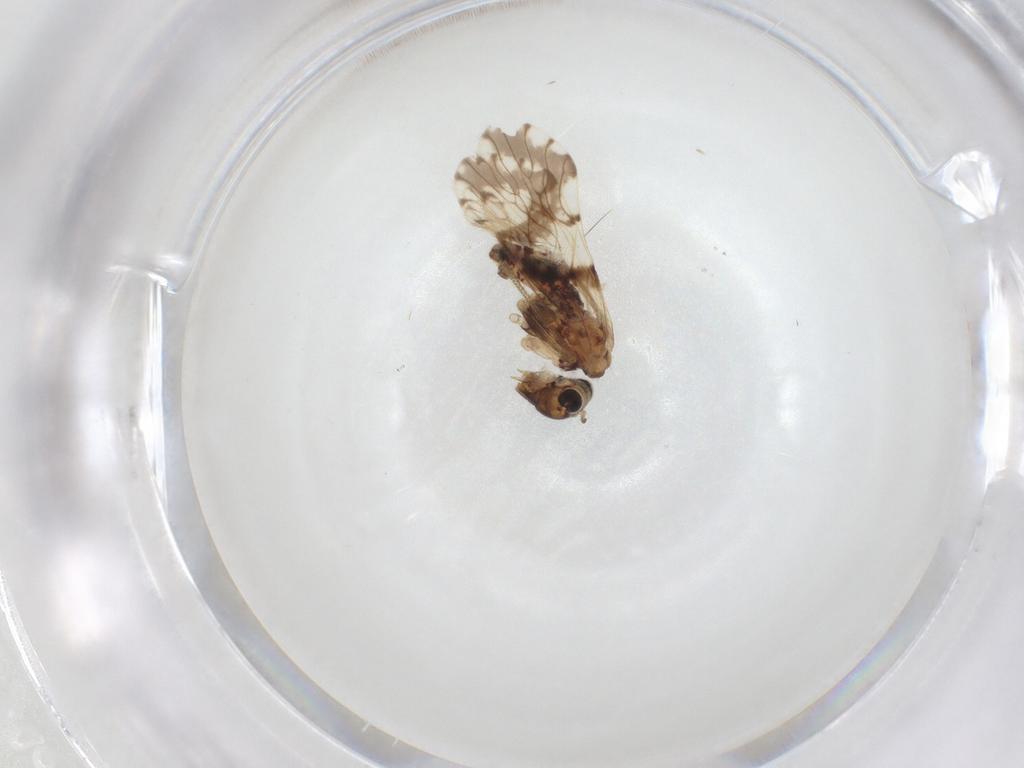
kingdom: Animalia
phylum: Arthropoda
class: Insecta
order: Psocodea
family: Epipsocidae
